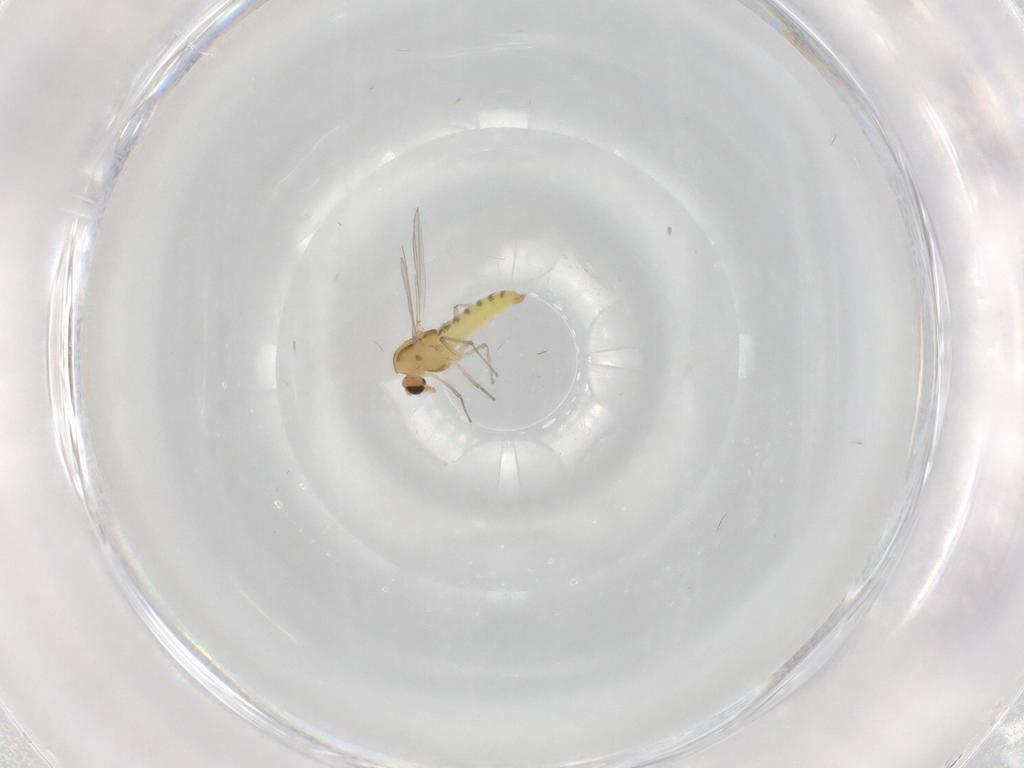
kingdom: Animalia
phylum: Arthropoda
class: Insecta
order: Diptera
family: Chironomidae
